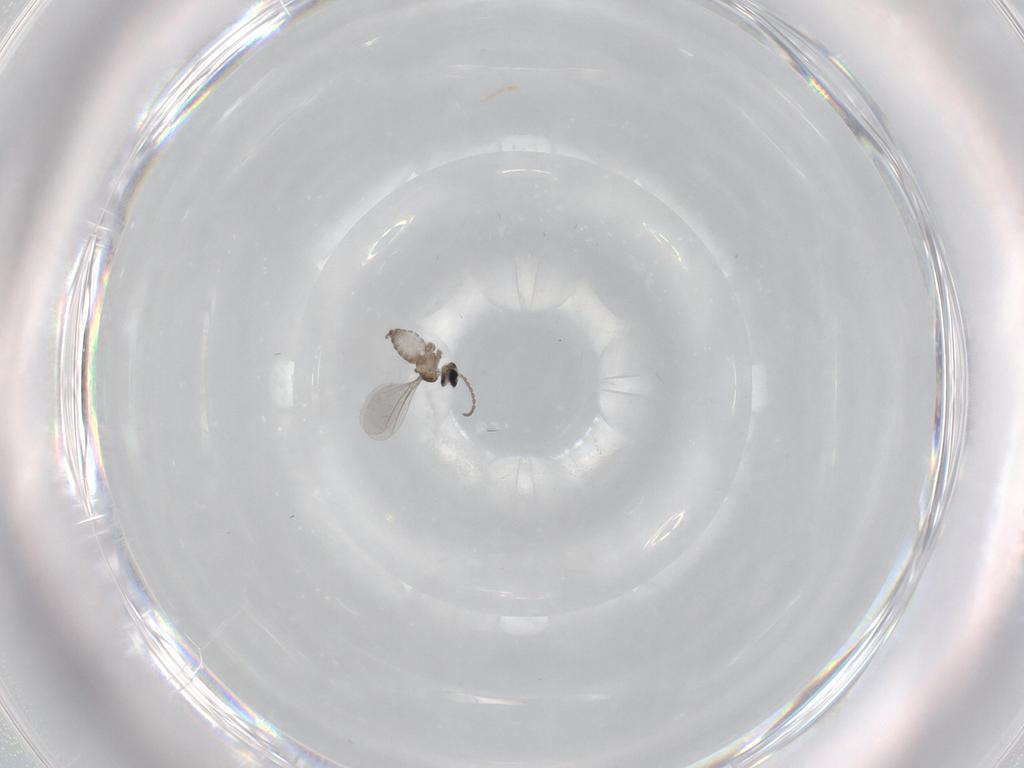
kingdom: Animalia
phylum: Arthropoda
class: Insecta
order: Diptera
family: Cecidomyiidae
